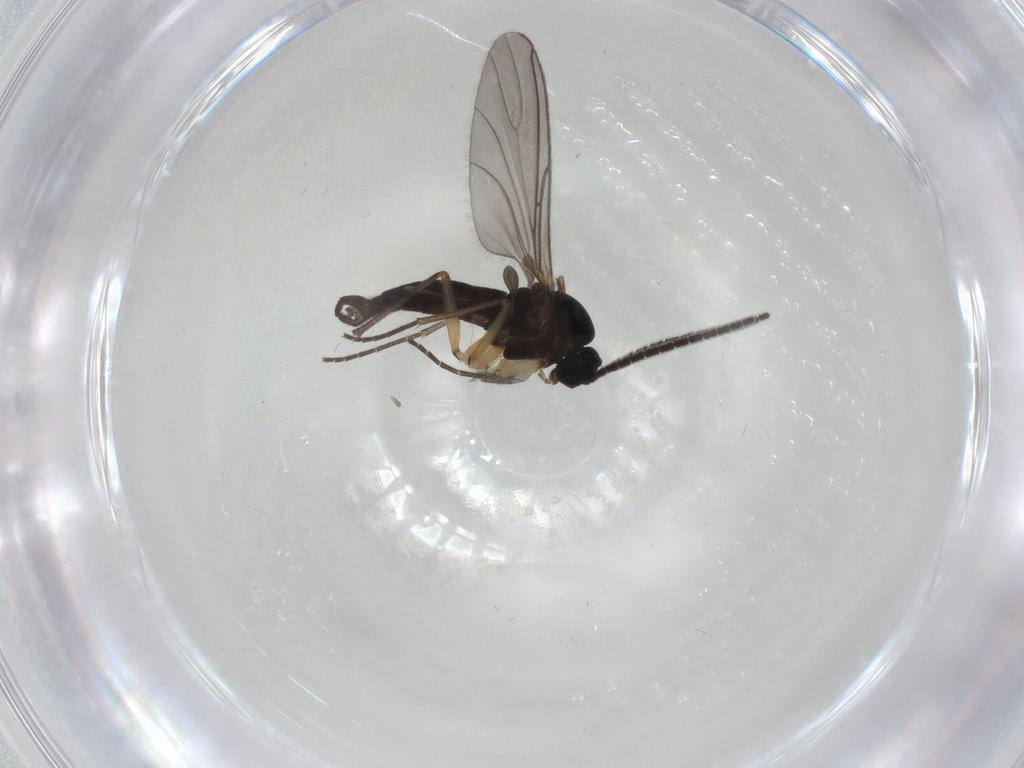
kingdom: Animalia
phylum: Arthropoda
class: Insecta
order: Diptera
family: Sciaridae
